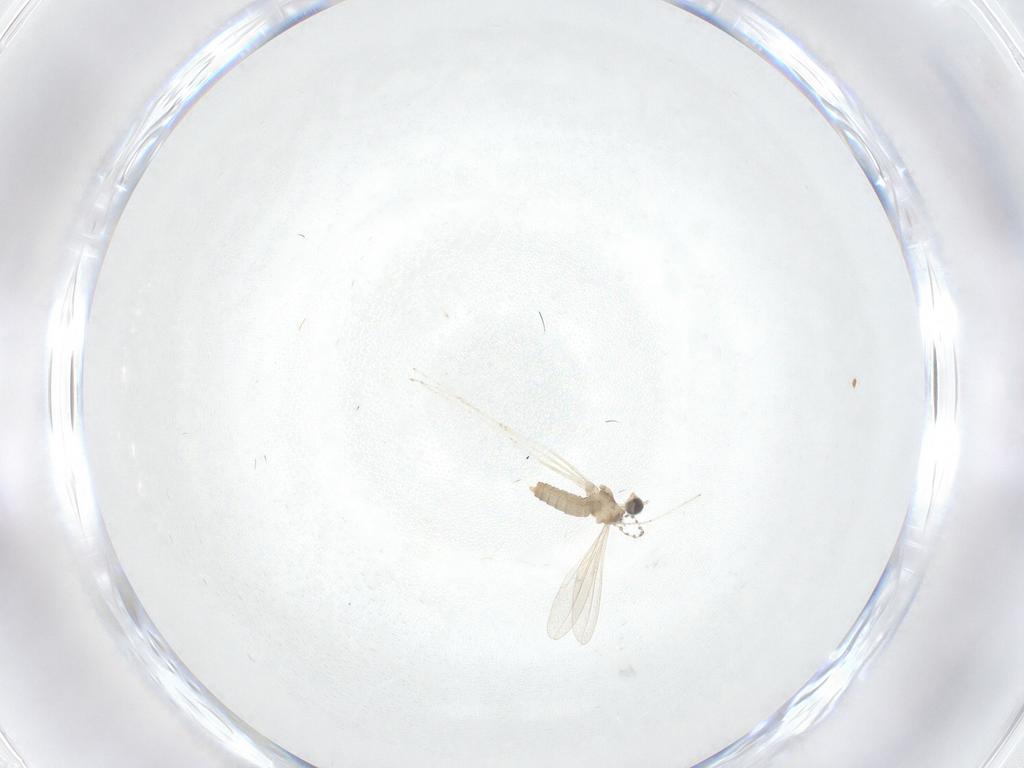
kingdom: Animalia
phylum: Arthropoda
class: Insecta
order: Diptera
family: Cecidomyiidae
